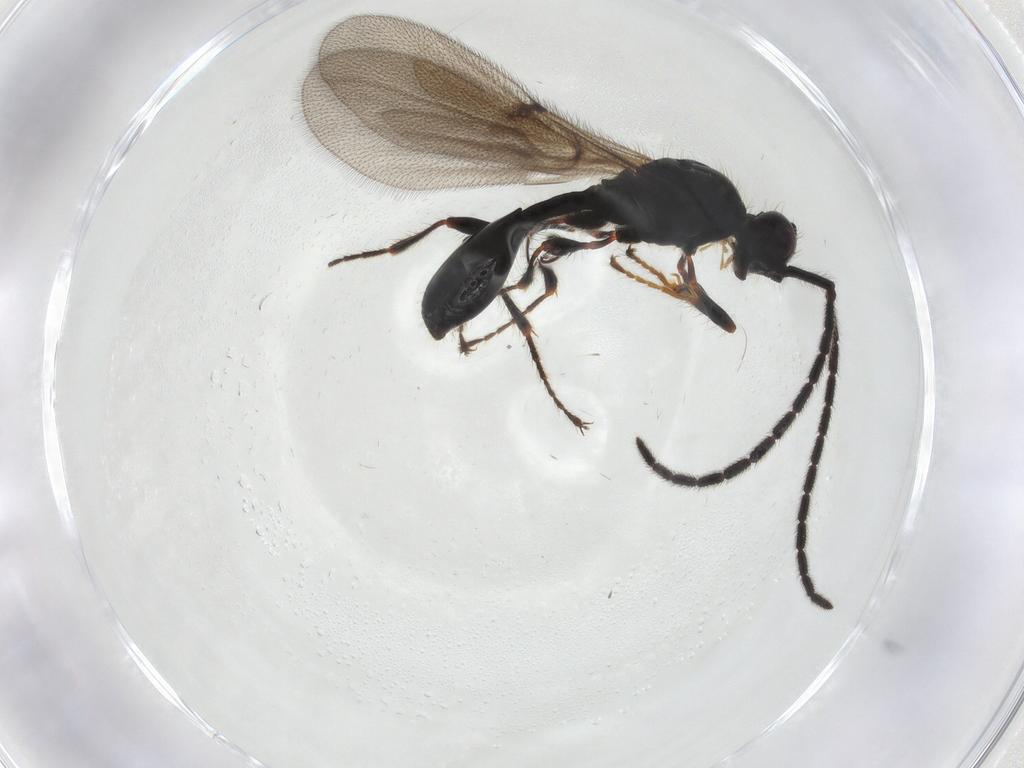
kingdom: Animalia
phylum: Arthropoda
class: Insecta
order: Hymenoptera
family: Diapriidae
